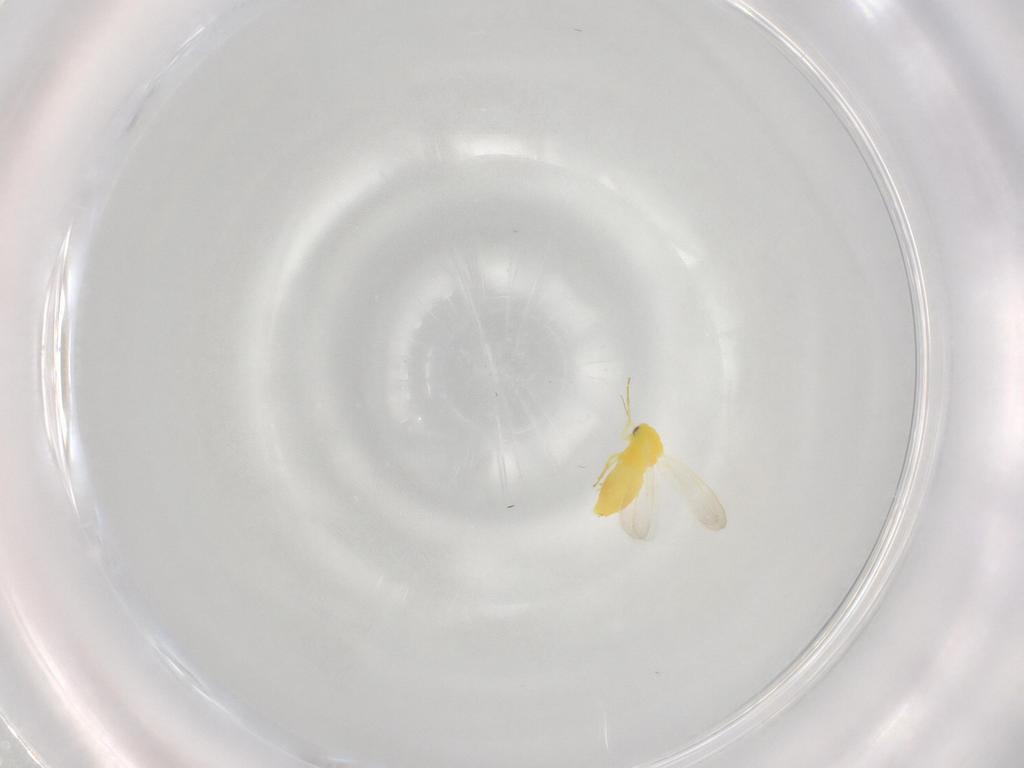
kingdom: Animalia
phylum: Arthropoda
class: Insecta
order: Hemiptera
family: Aleyrodidae
